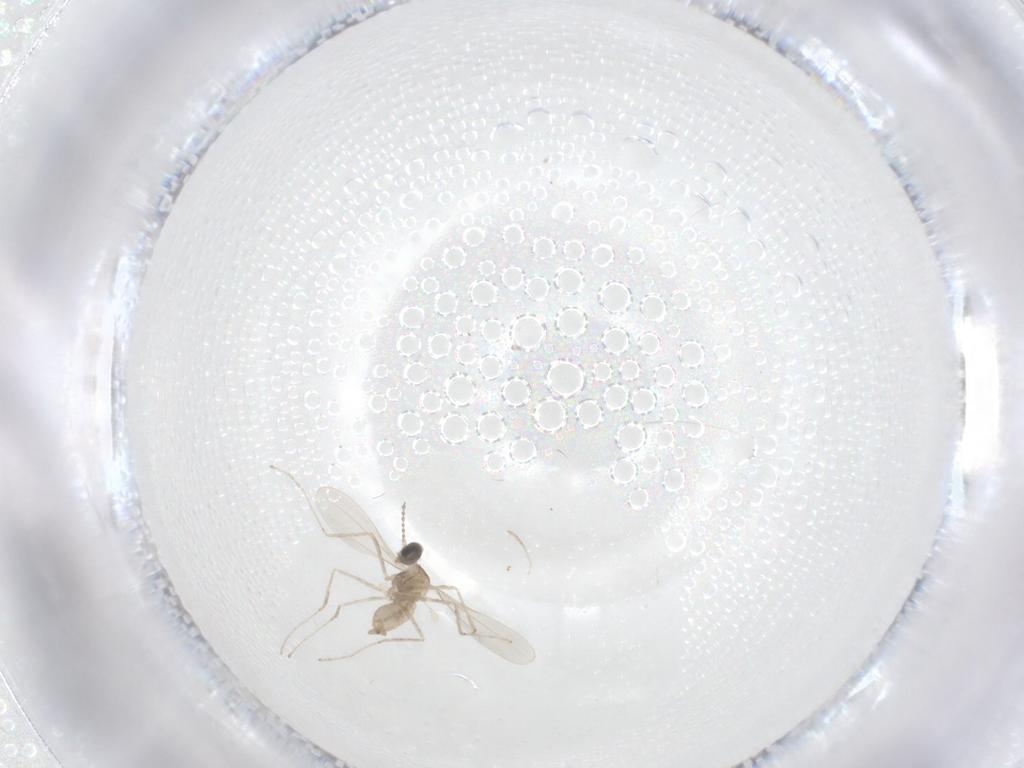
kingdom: Animalia
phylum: Arthropoda
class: Insecta
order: Diptera
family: Cecidomyiidae
